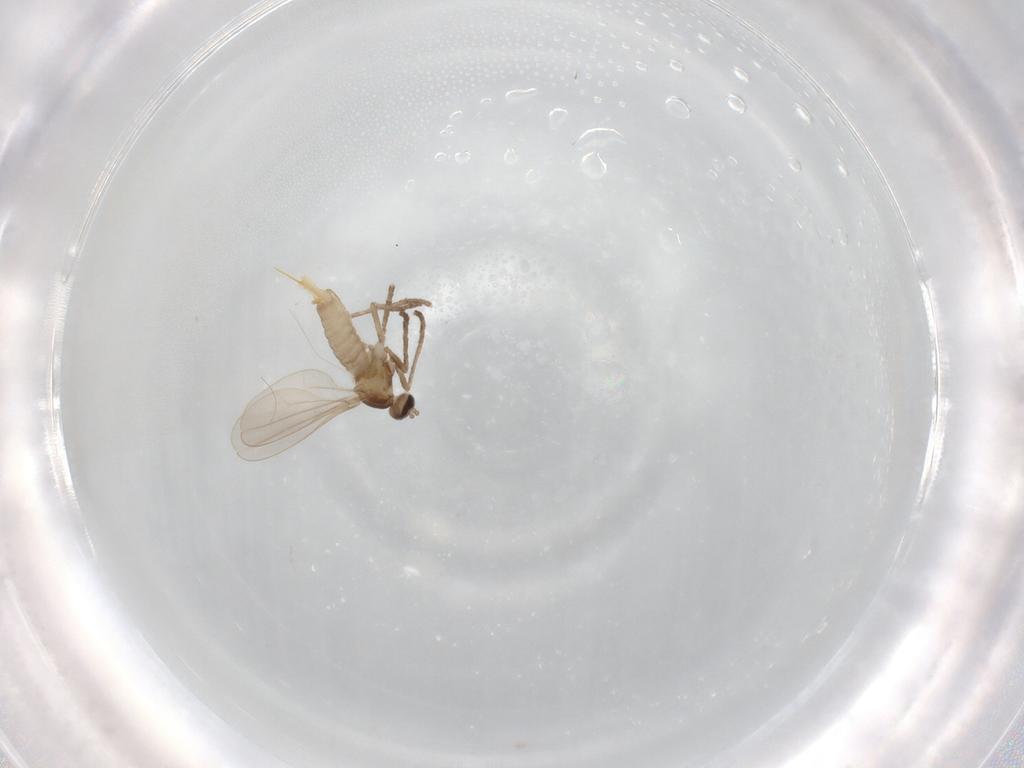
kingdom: Animalia
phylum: Arthropoda
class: Insecta
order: Diptera
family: Cecidomyiidae
